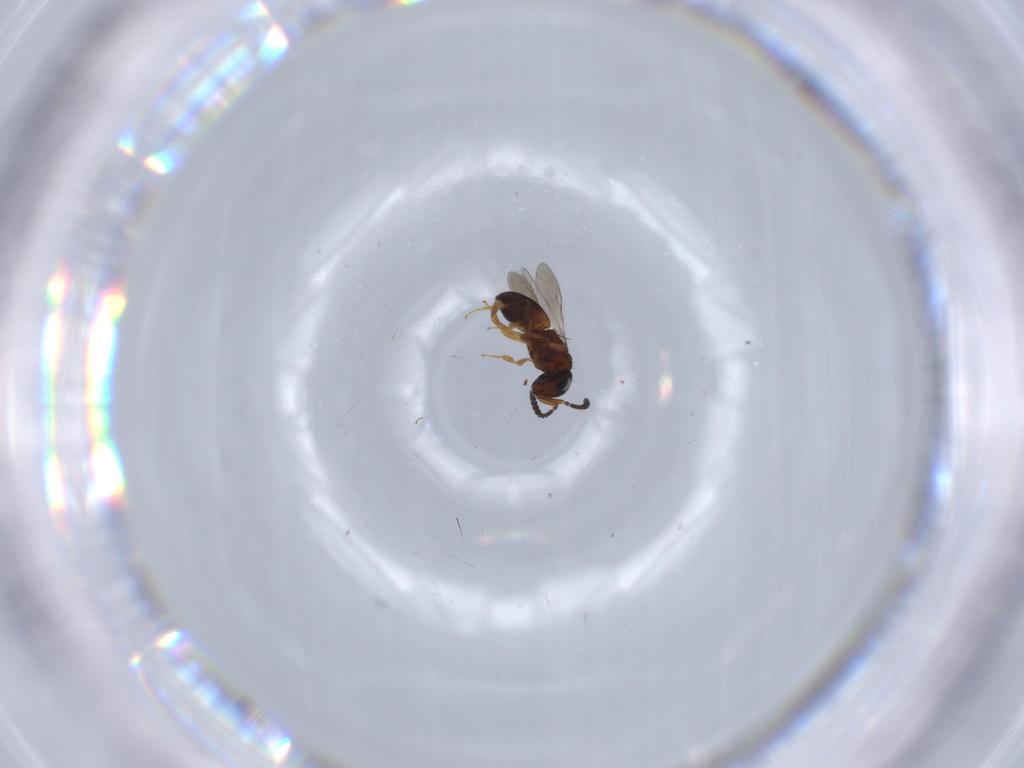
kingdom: Animalia
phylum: Arthropoda
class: Insecta
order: Hymenoptera
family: Scelionidae
